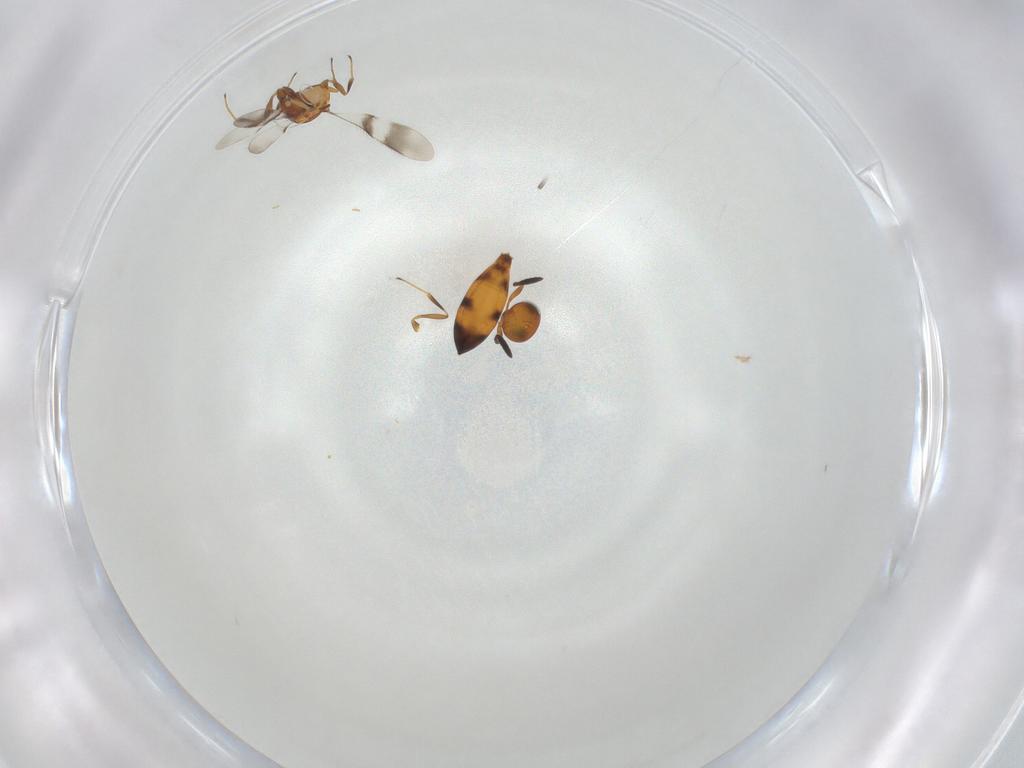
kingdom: Animalia
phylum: Arthropoda
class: Insecta
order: Hymenoptera
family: Scelionidae
